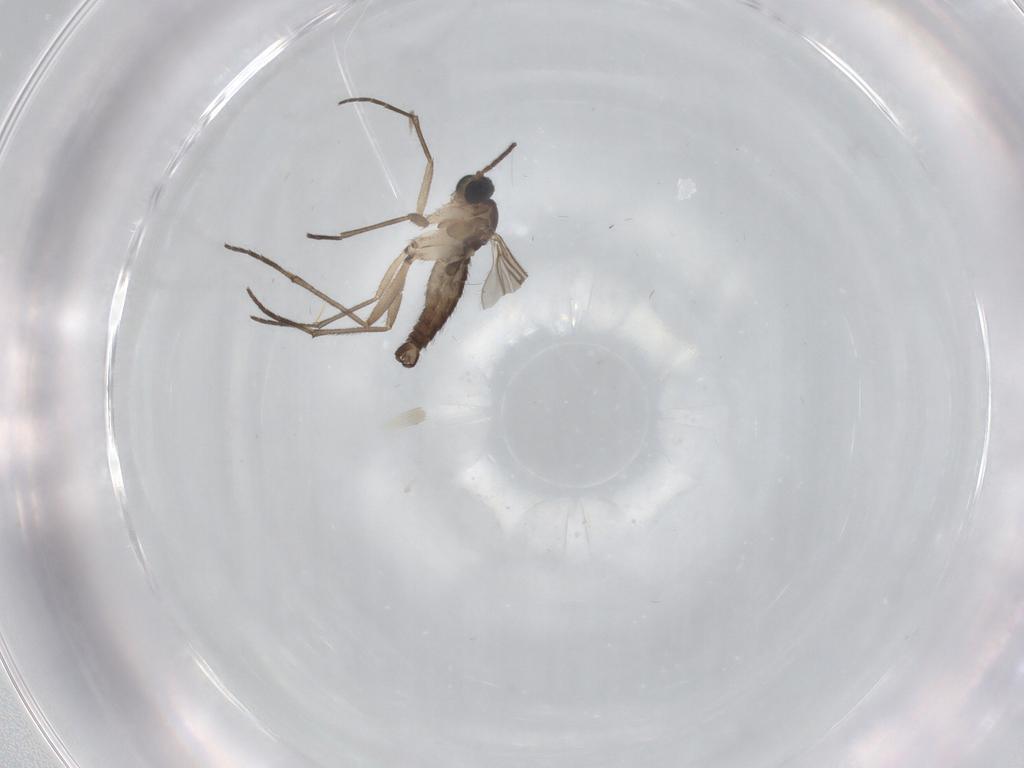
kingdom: Animalia
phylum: Arthropoda
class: Insecta
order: Diptera
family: Sciaridae
